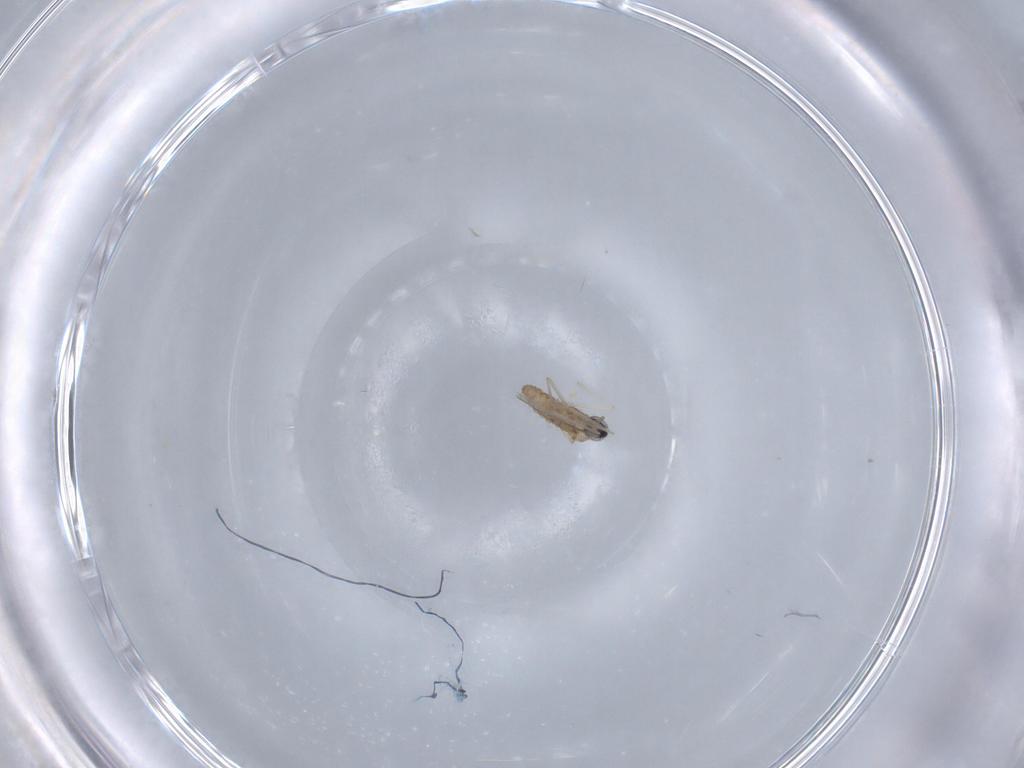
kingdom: Animalia
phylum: Arthropoda
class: Insecta
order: Diptera
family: Cecidomyiidae
